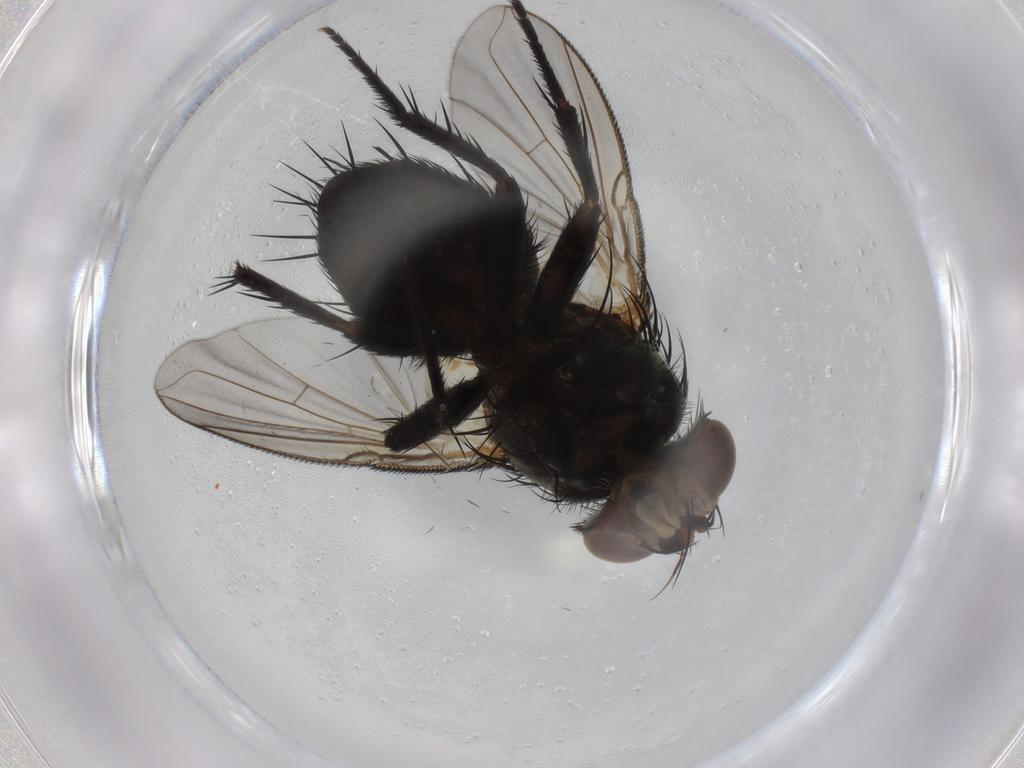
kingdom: Animalia
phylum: Arthropoda
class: Insecta
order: Diptera
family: Tachinidae
